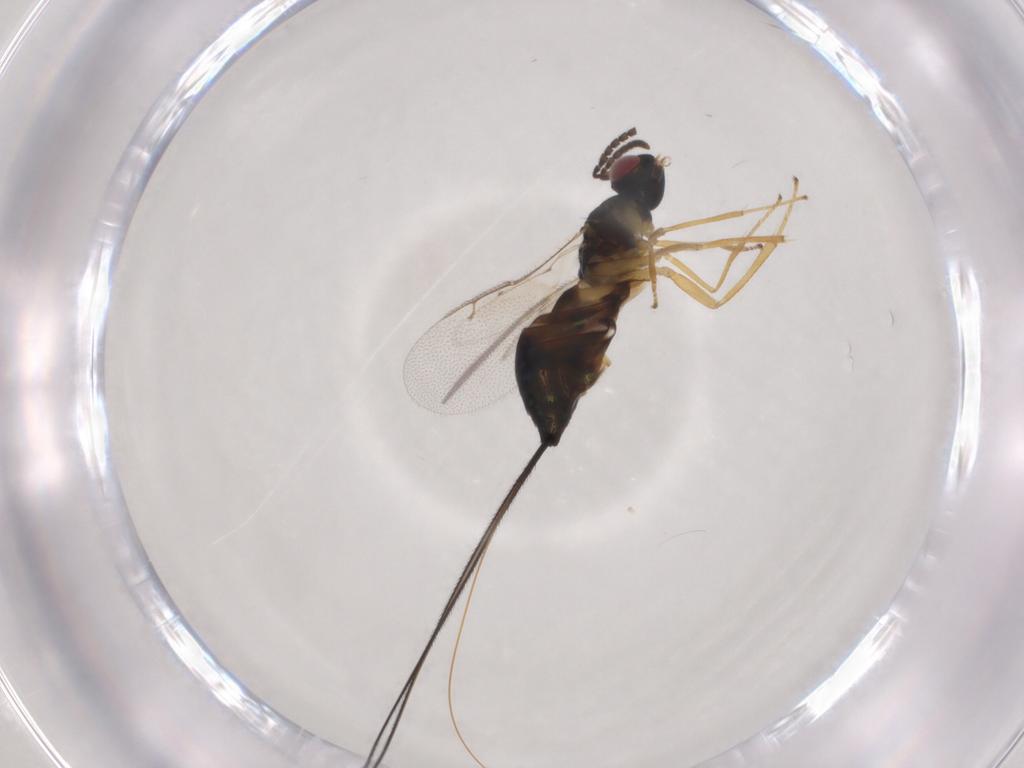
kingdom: Animalia
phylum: Arthropoda
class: Insecta
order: Hymenoptera
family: Pteromalidae
